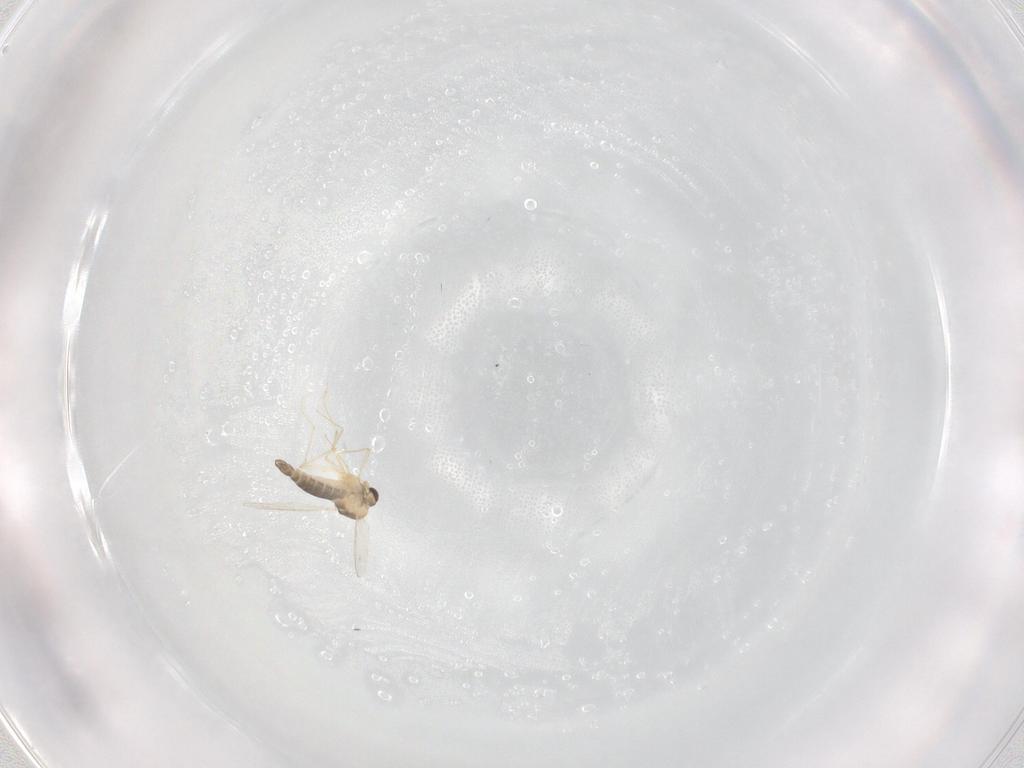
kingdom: Animalia
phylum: Arthropoda
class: Insecta
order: Diptera
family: Chironomidae
